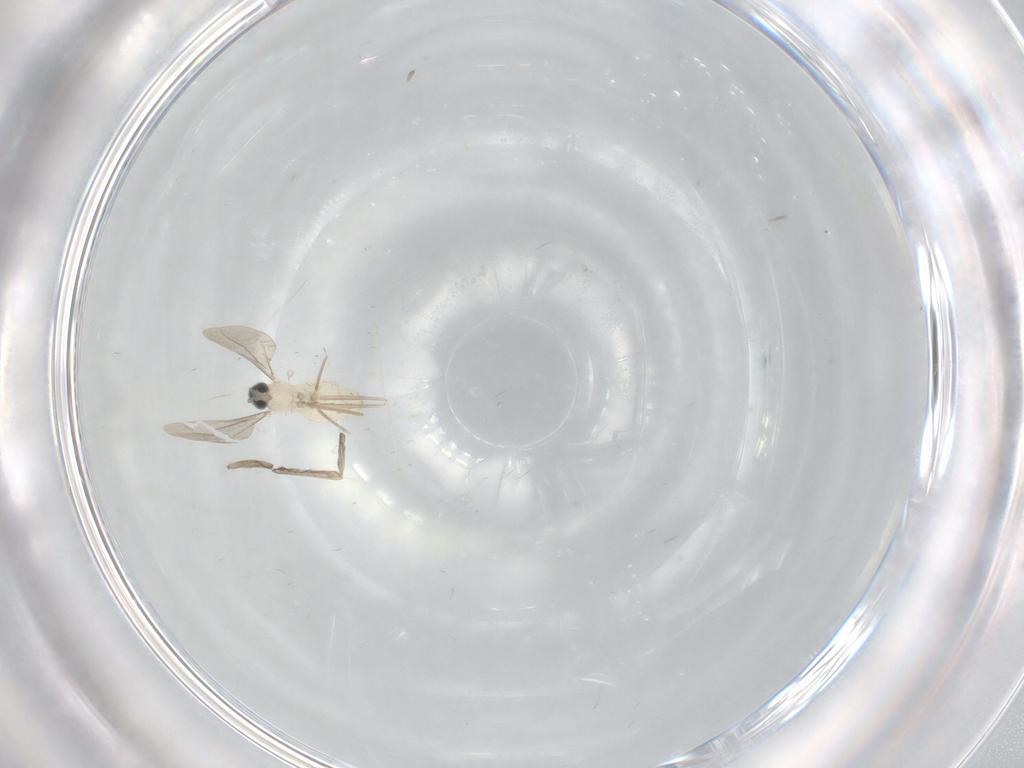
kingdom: Animalia
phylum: Arthropoda
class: Insecta
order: Diptera
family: Cecidomyiidae
